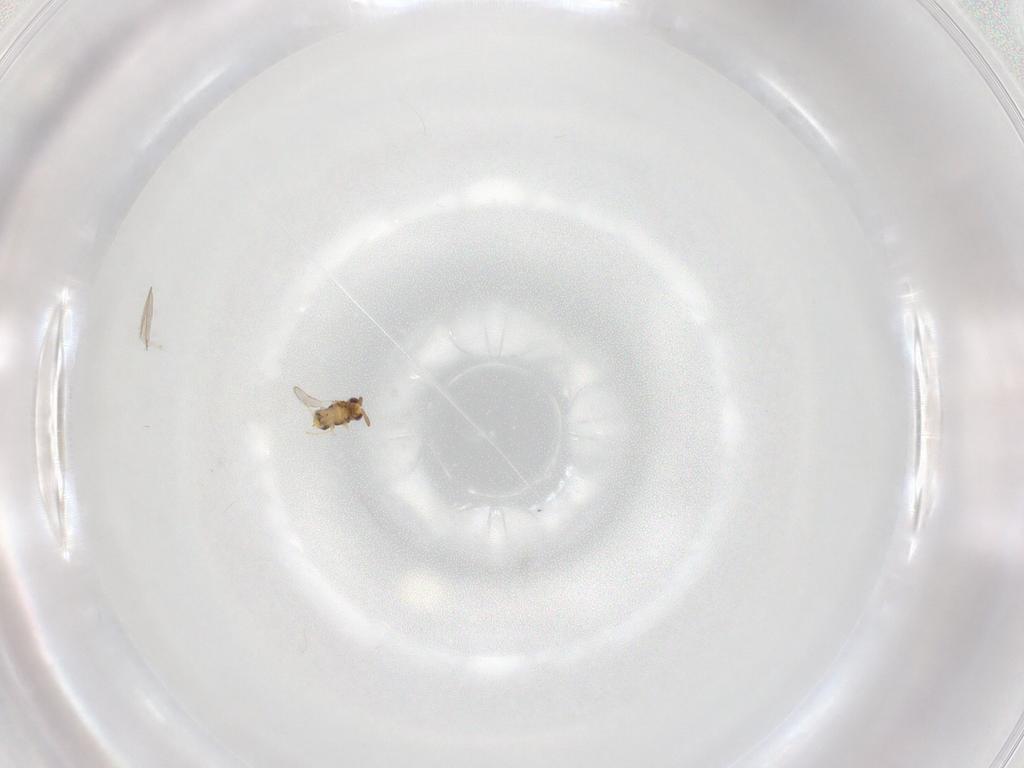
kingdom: Animalia
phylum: Arthropoda
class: Insecta
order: Hymenoptera
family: Aphelinidae
